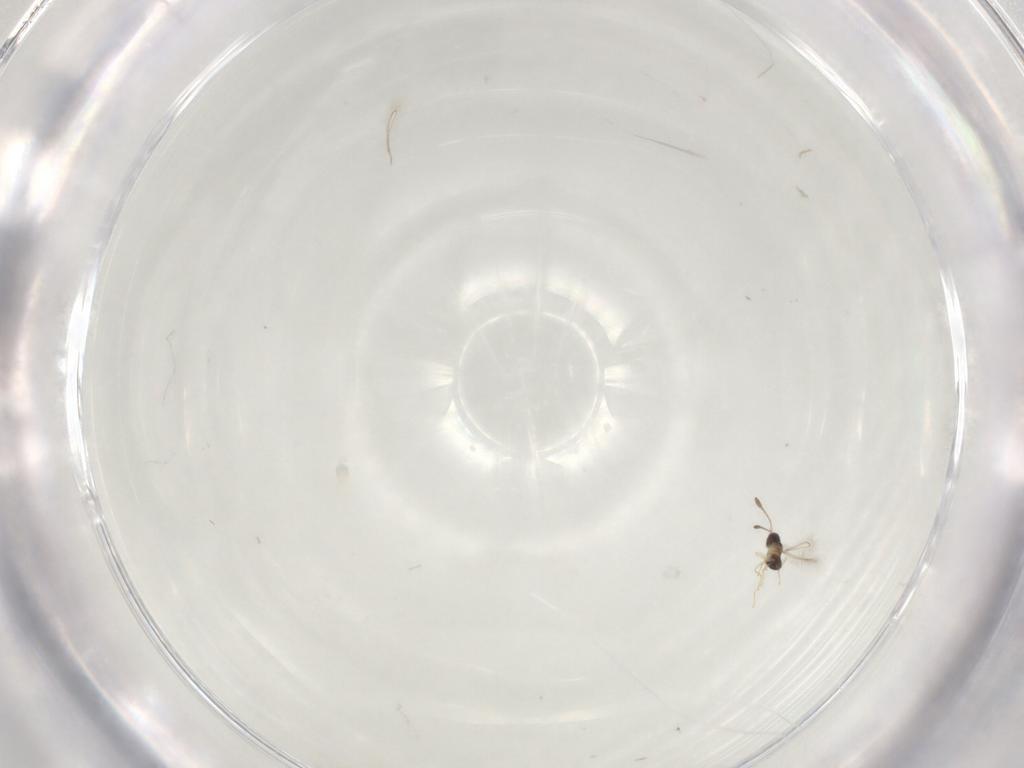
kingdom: Animalia
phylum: Arthropoda
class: Insecta
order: Hymenoptera
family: Mymaridae
